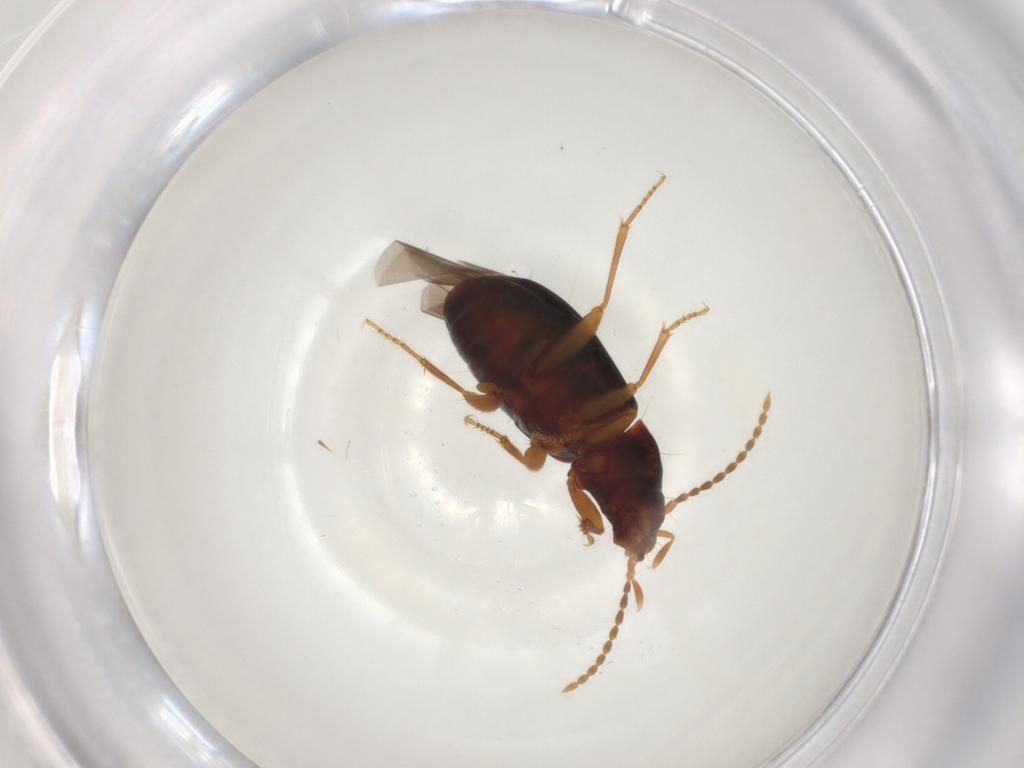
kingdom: Animalia
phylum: Arthropoda
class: Insecta
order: Coleoptera
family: Carabidae
